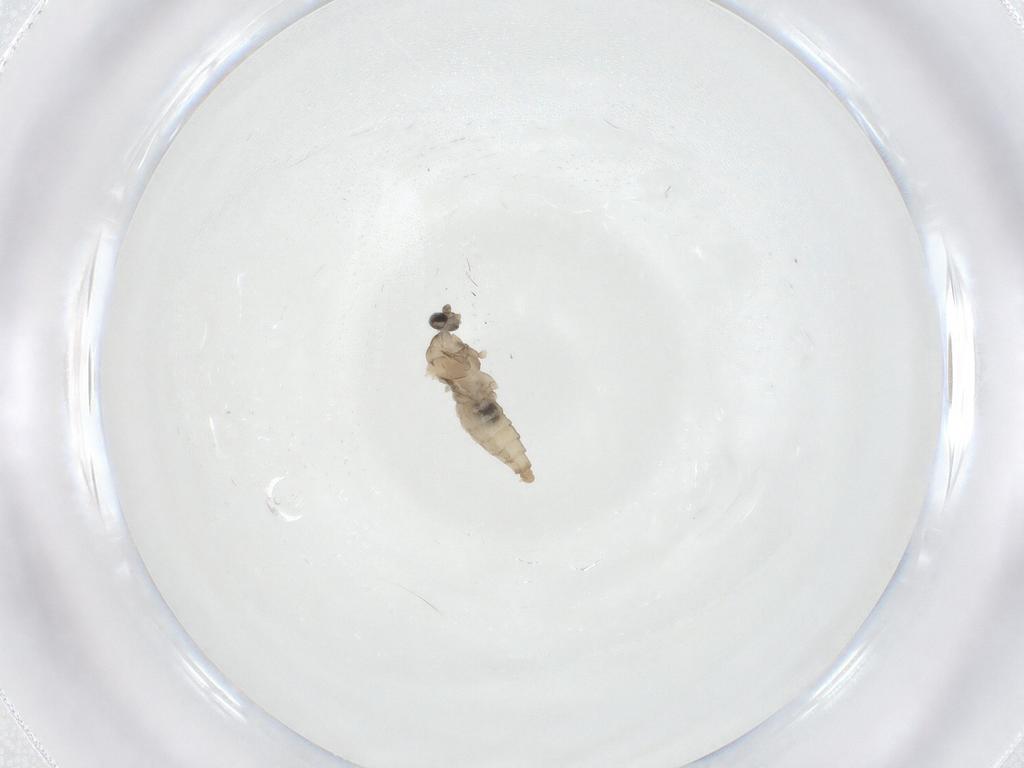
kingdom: Animalia
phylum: Arthropoda
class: Insecta
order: Diptera
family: Cecidomyiidae
